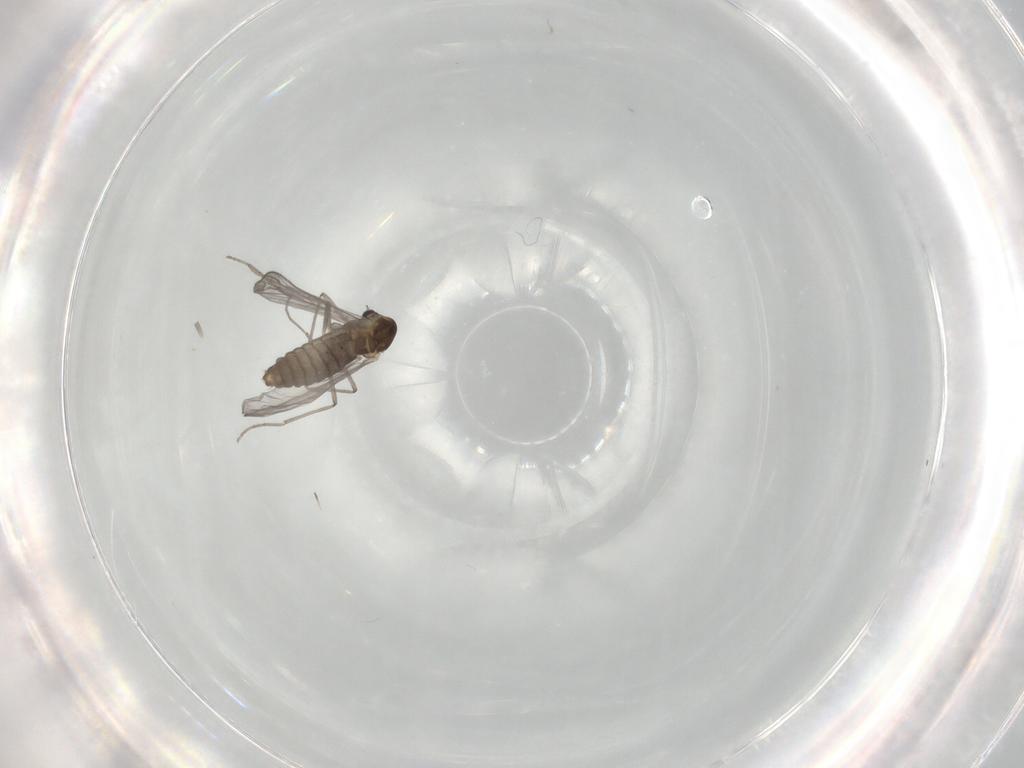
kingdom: Animalia
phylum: Arthropoda
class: Insecta
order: Diptera
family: Chironomidae
